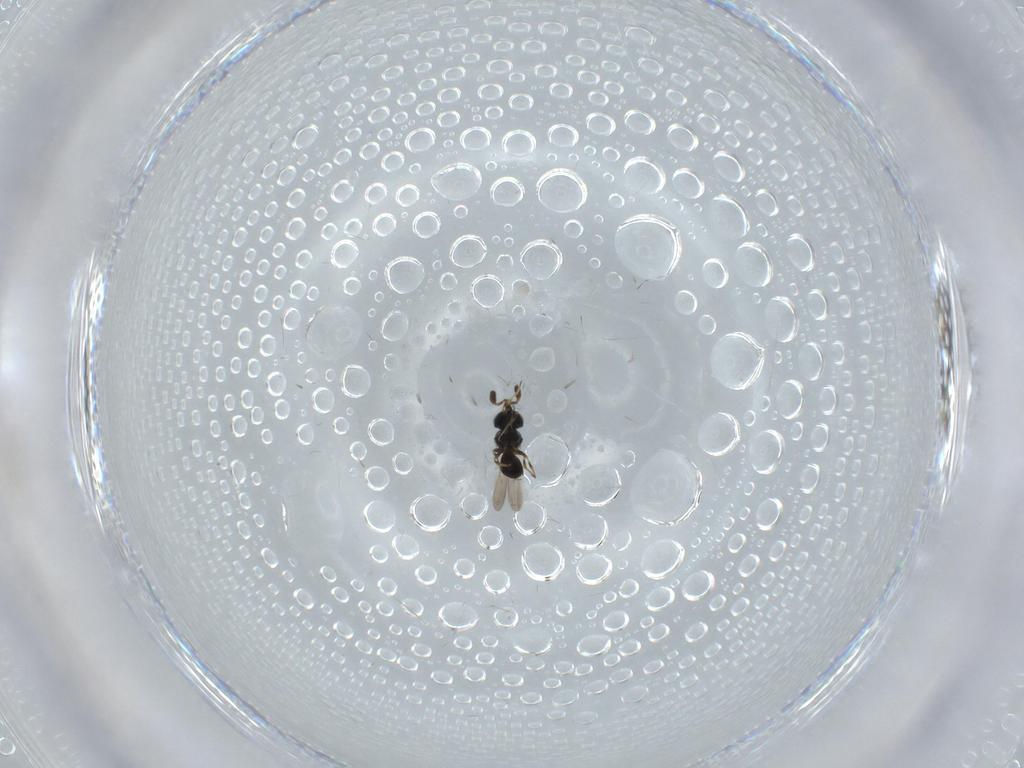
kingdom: Animalia
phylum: Arthropoda
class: Insecta
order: Hymenoptera
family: Scelionidae
